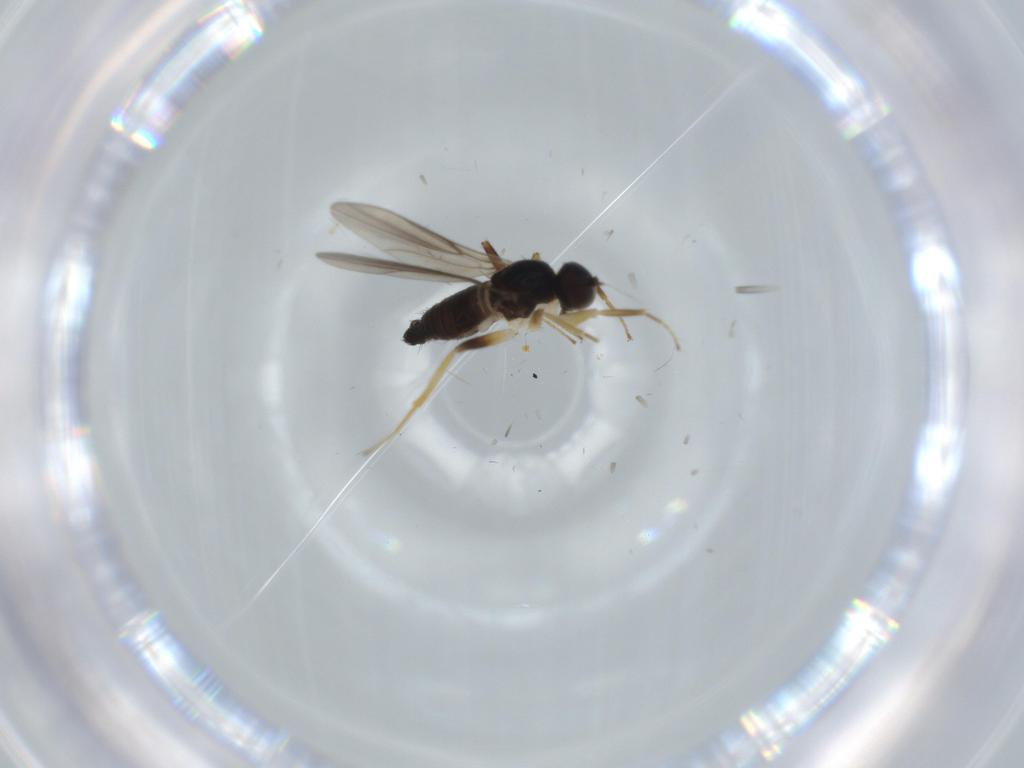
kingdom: Animalia
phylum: Arthropoda
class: Insecta
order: Diptera
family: Hybotidae
